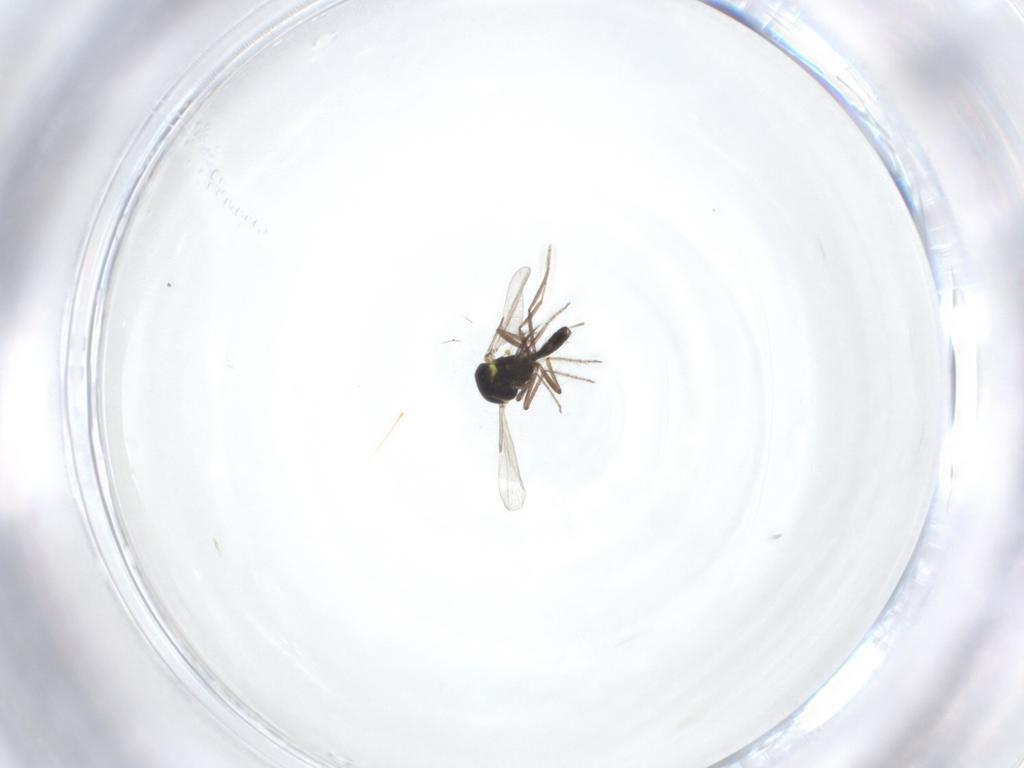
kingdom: Animalia
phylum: Arthropoda
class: Insecta
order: Diptera
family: Ceratopogonidae
